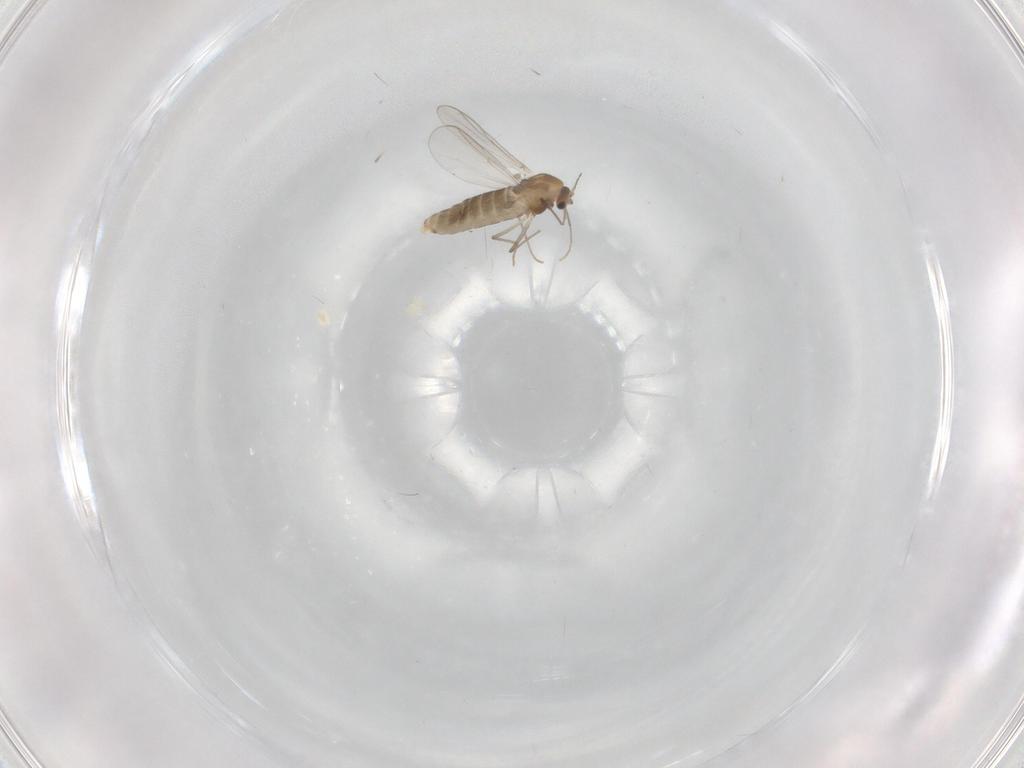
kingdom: Animalia
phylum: Arthropoda
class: Insecta
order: Diptera
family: Chironomidae
